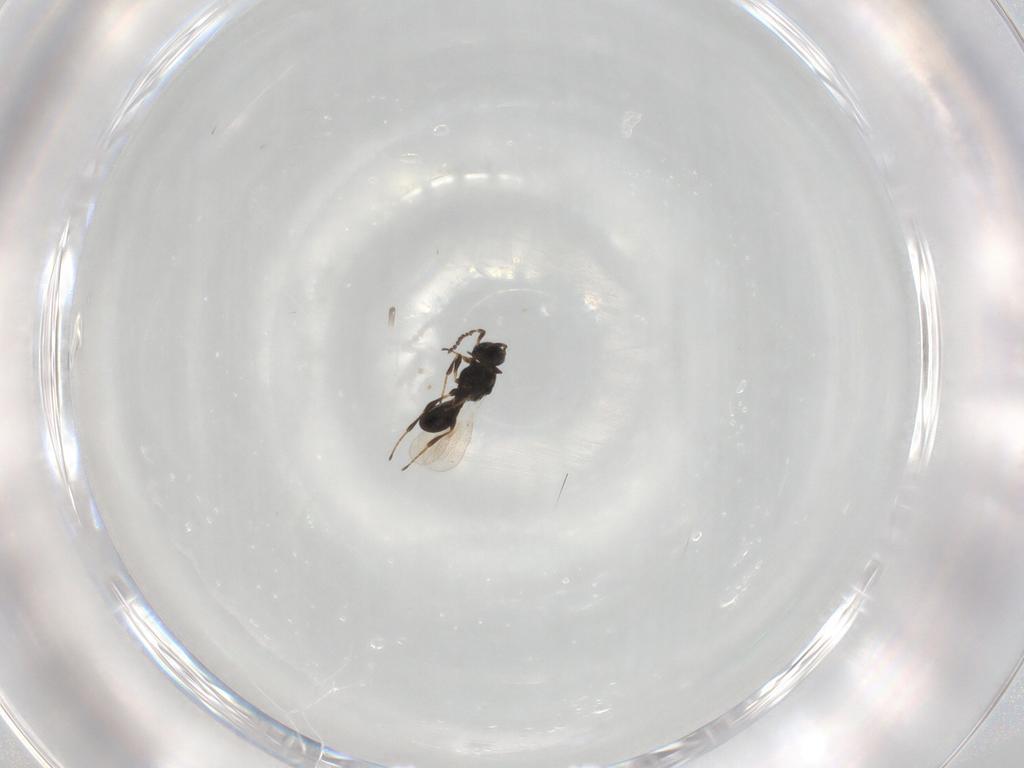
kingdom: Animalia
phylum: Arthropoda
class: Insecta
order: Hymenoptera
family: Platygastridae
